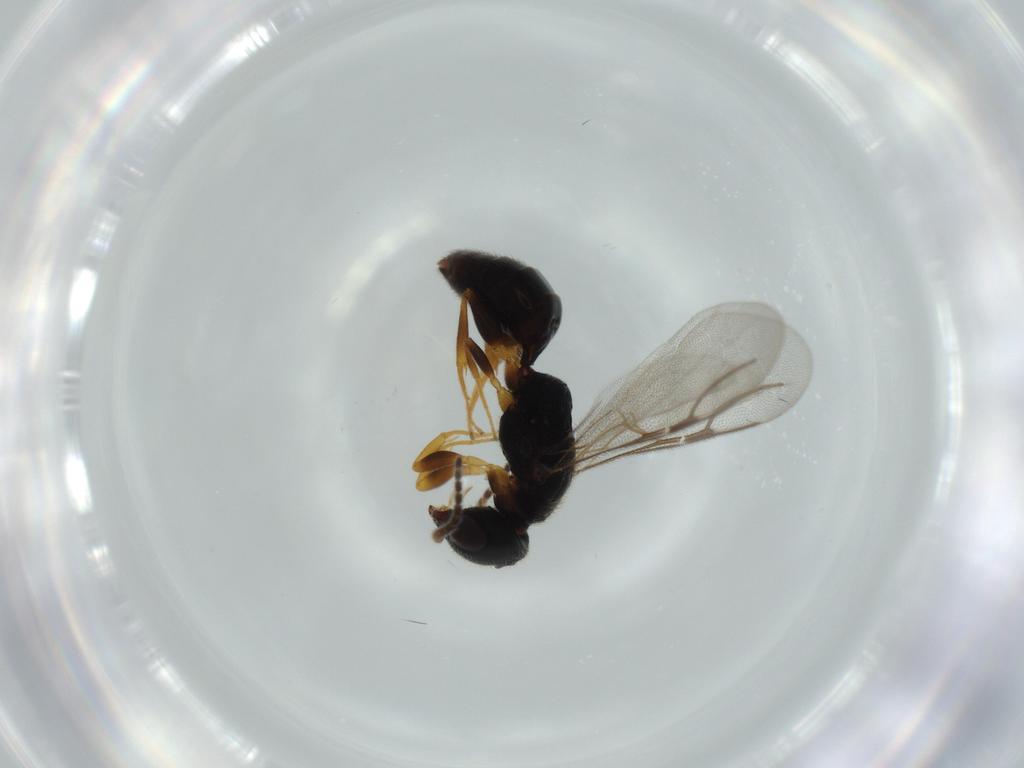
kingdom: Animalia
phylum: Arthropoda
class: Insecta
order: Hymenoptera
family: Bethylidae
